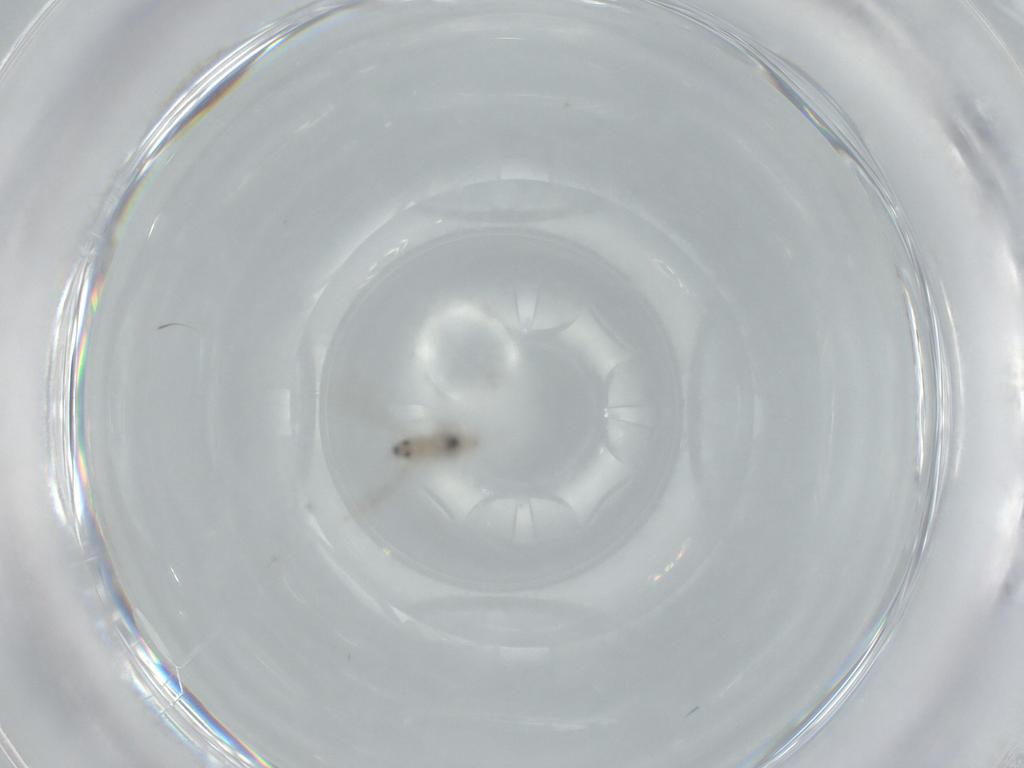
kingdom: Animalia
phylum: Arthropoda
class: Insecta
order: Diptera
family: Cecidomyiidae
